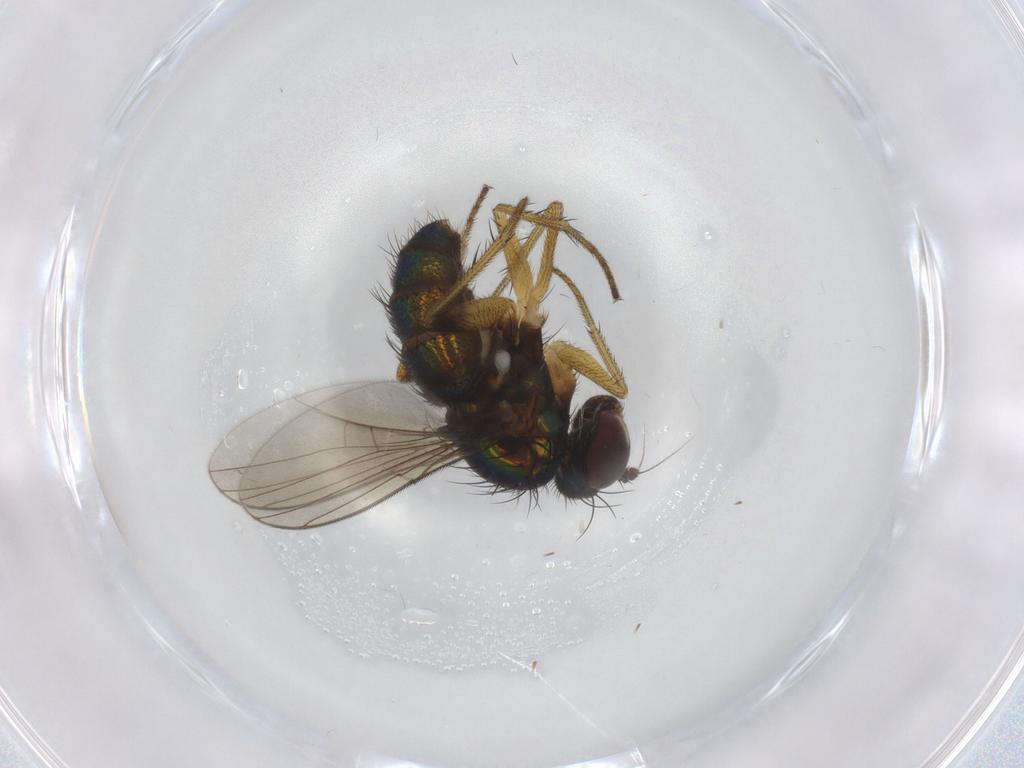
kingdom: Animalia
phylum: Arthropoda
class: Insecta
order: Diptera
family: Dolichopodidae
